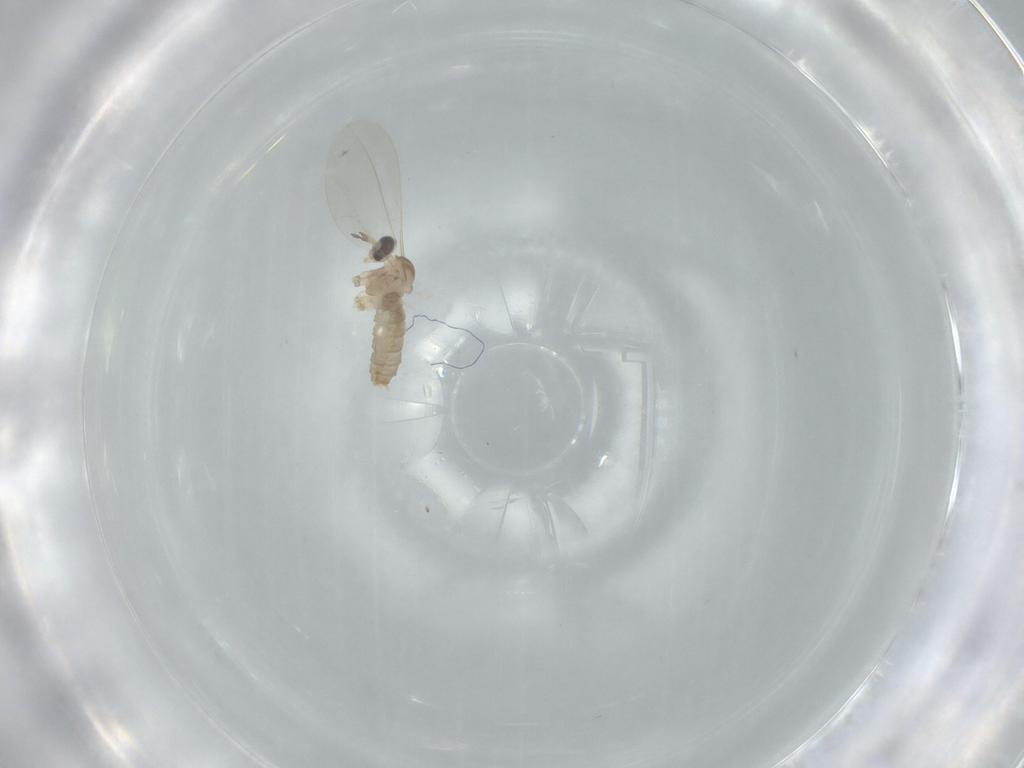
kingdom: Animalia
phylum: Arthropoda
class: Insecta
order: Diptera
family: Cecidomyiidae
